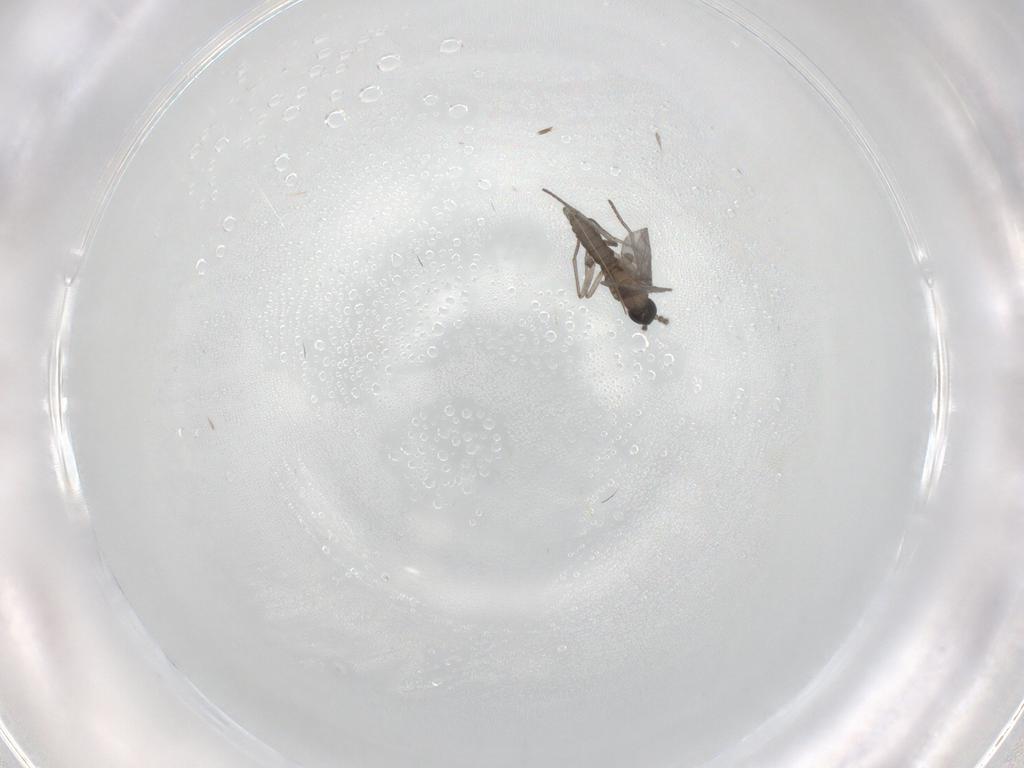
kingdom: Animalia
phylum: Arthropoda
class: Insecta
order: Diptera
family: Sciaridae
